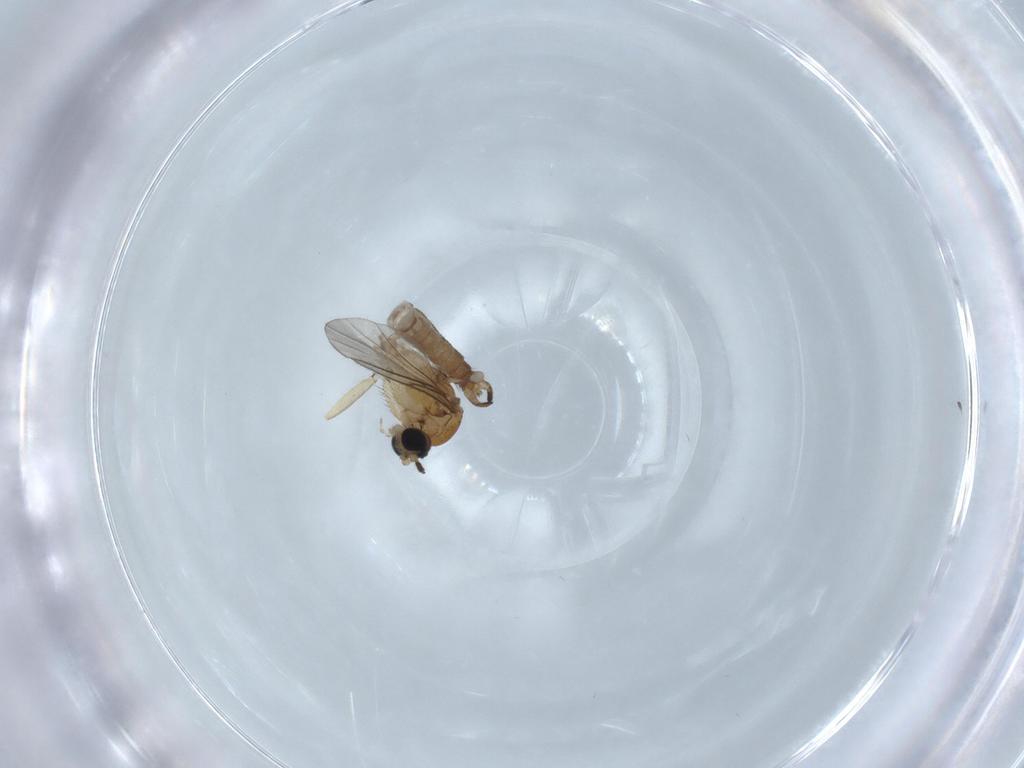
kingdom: Animalia
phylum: Arthropoda
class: Insecta
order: Diptera
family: Sciaridae
